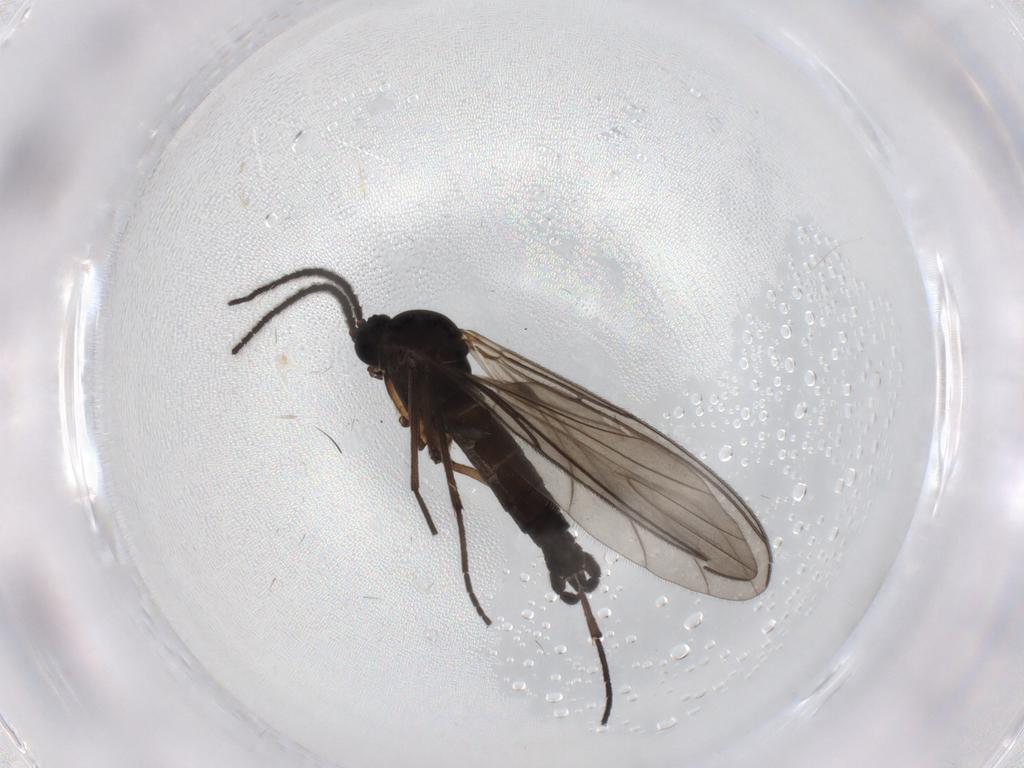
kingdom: Animalia
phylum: Arthropoda
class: Insecta
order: Diptera
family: Sciaridae
